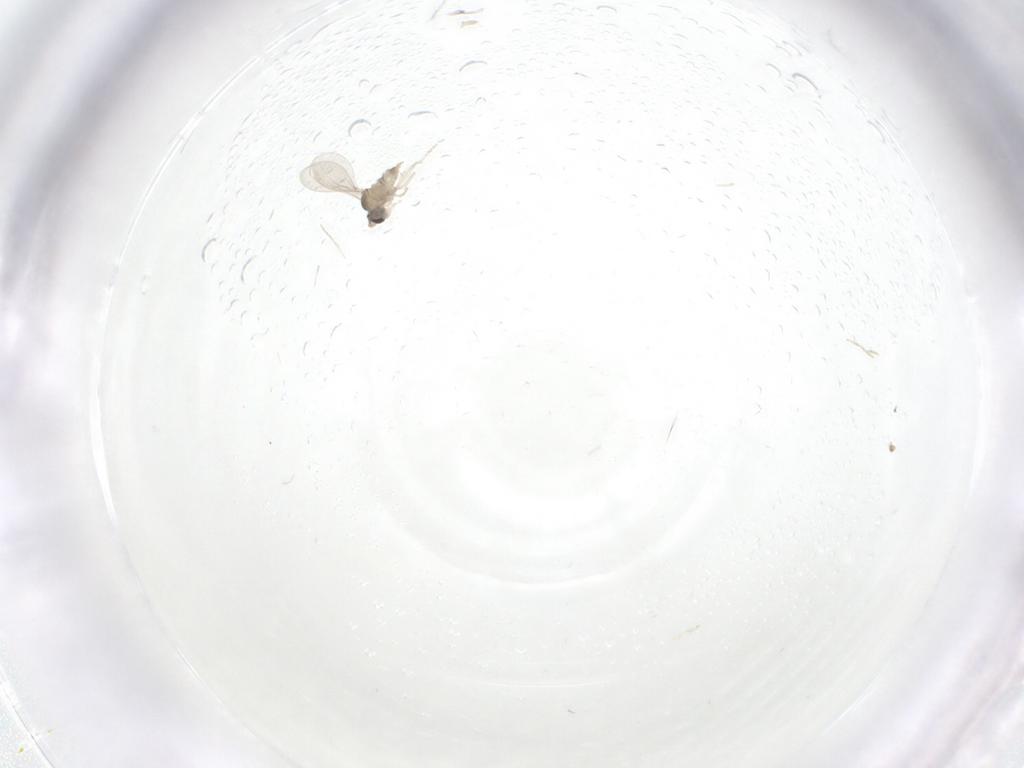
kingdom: Animalia
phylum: Arthropoda
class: Insecta
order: Diptera
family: Cecidomyiidae
